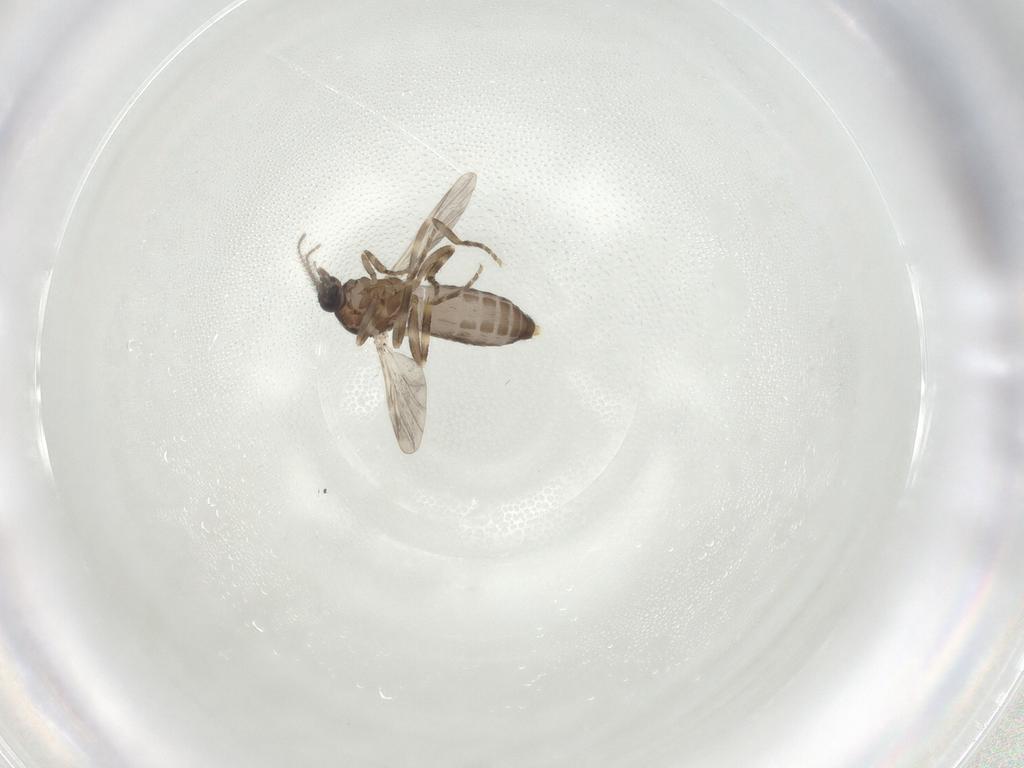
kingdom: Animalia
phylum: Arthropoda
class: Insecta
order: Diptera
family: Ceratopogonidae
